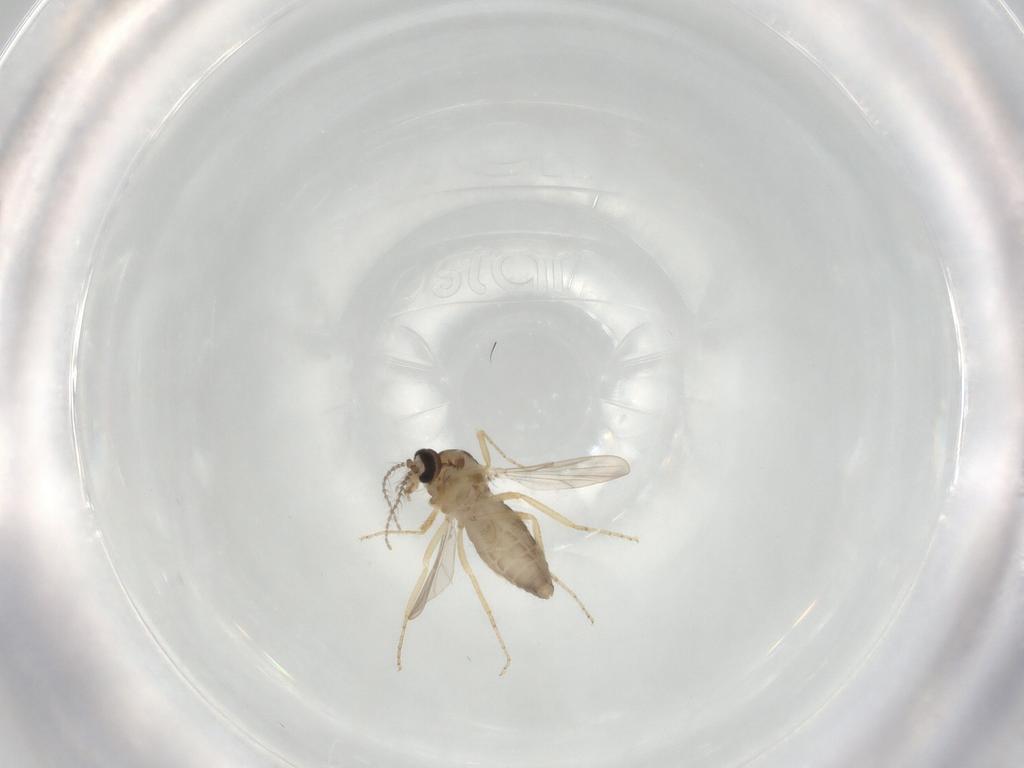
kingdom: Animalia
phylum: Arthropoda
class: Insecta
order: Diptera
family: Ceratopogonidae
